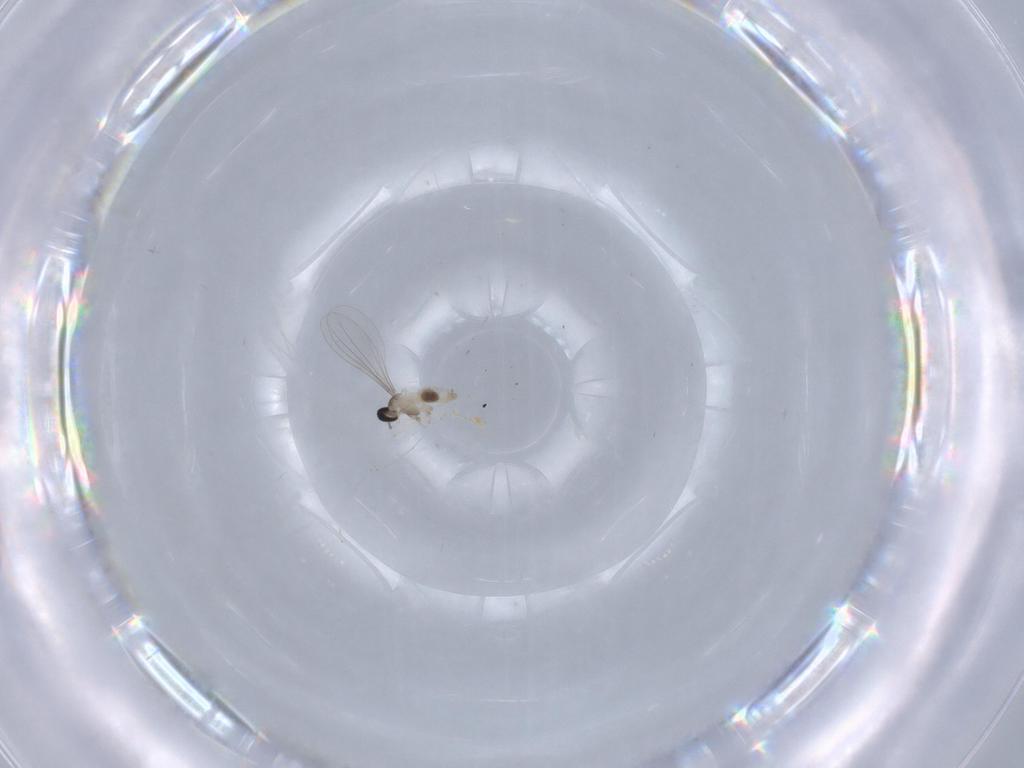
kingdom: Animalia
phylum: Arthropoda
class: Insecta
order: Diptera
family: Cecidomyiidae
